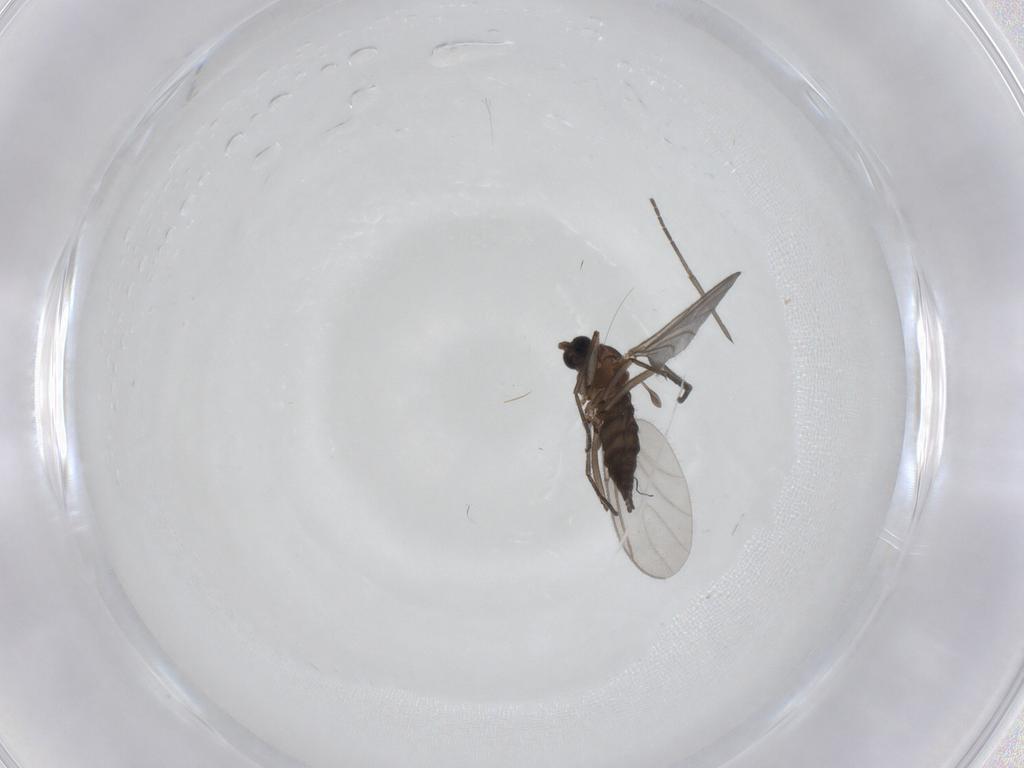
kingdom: Animalia
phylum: Arthropoda
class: Insecta
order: Diptera
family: Sciaridae
